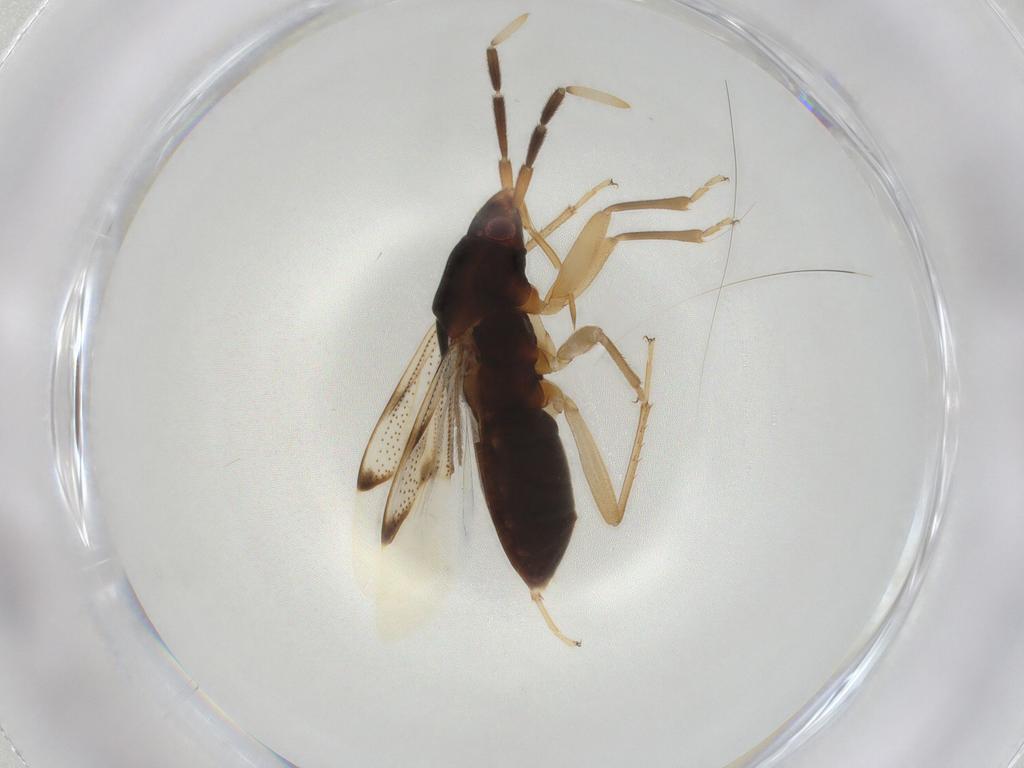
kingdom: Animalia
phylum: Arthropoda
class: Insecta
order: Hemiptera
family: Rhyparochromidae
